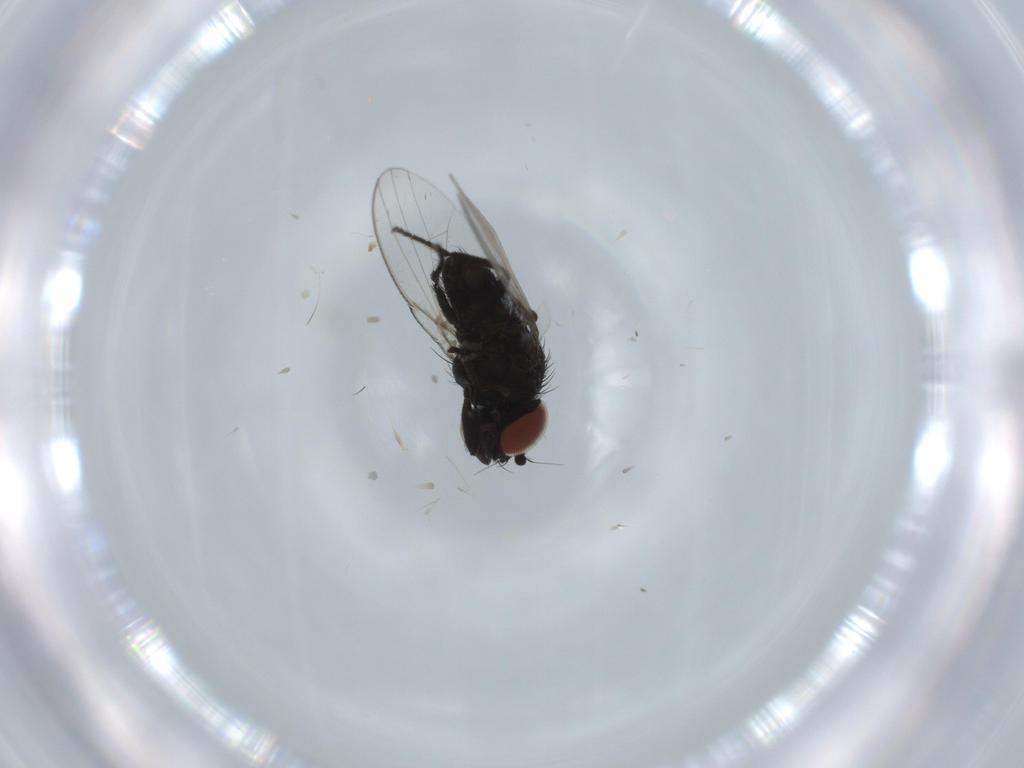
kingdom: Animalia
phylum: Arthropoda
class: Insecta
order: Diptera
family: Milichiidae
